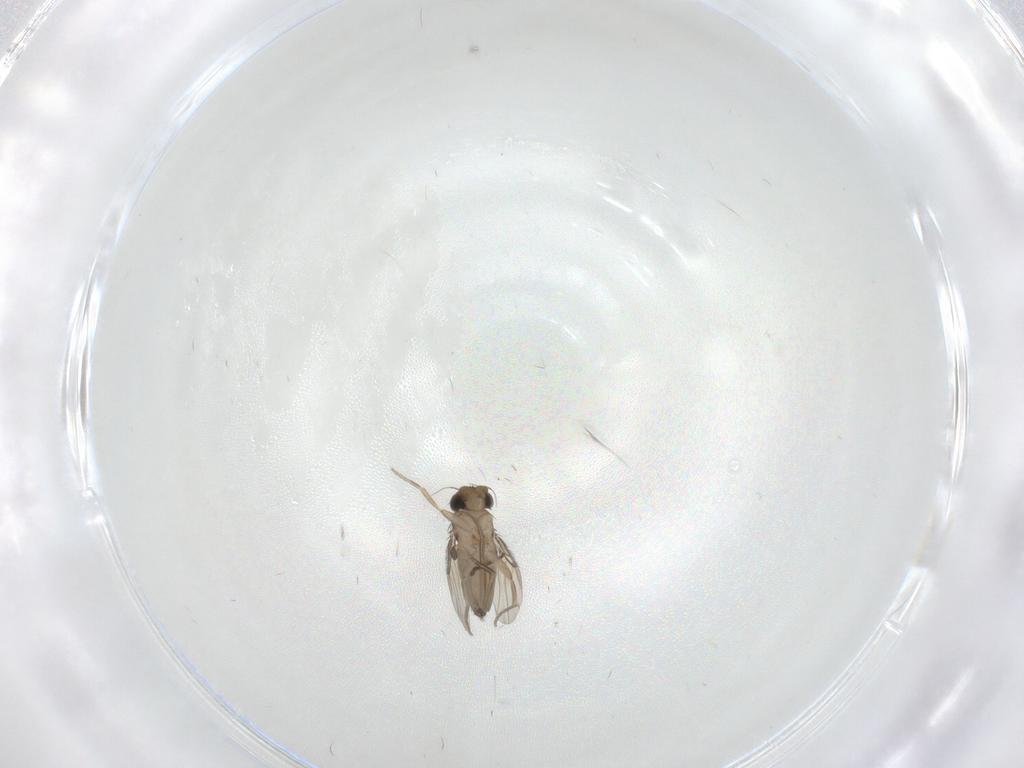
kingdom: Animalia
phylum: Arthropoda
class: Insecta
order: Diptera
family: Phoridae
